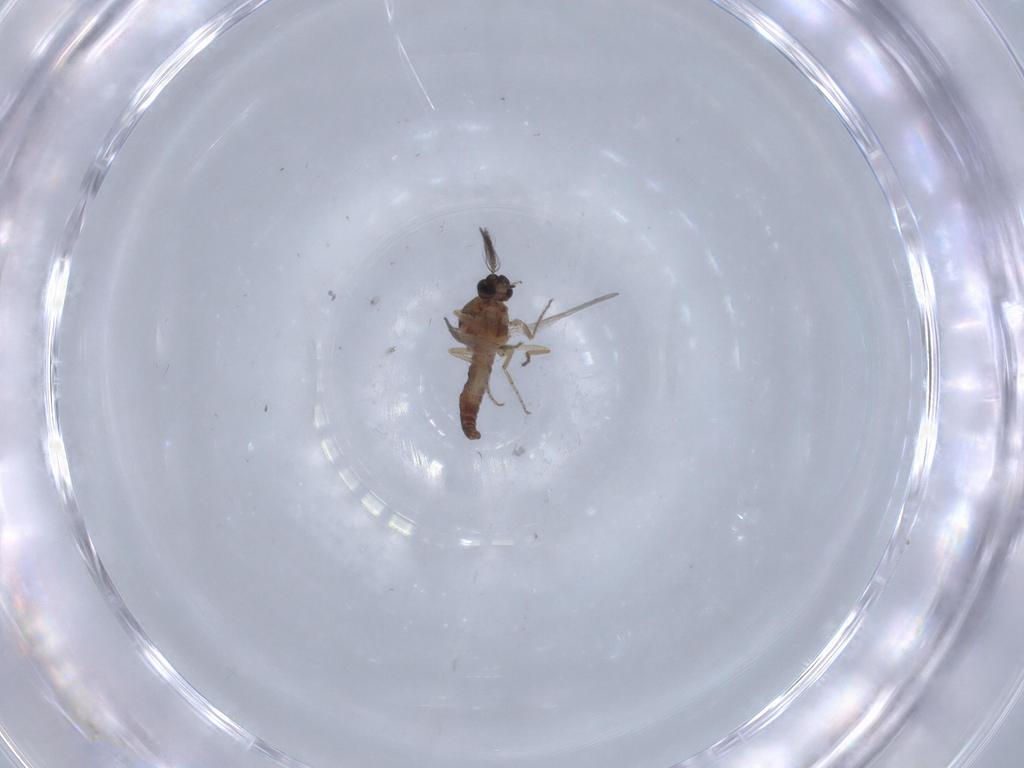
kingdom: Animalia
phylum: Arthropoda
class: Insecta
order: Diptera
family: Ceratopogonidae
